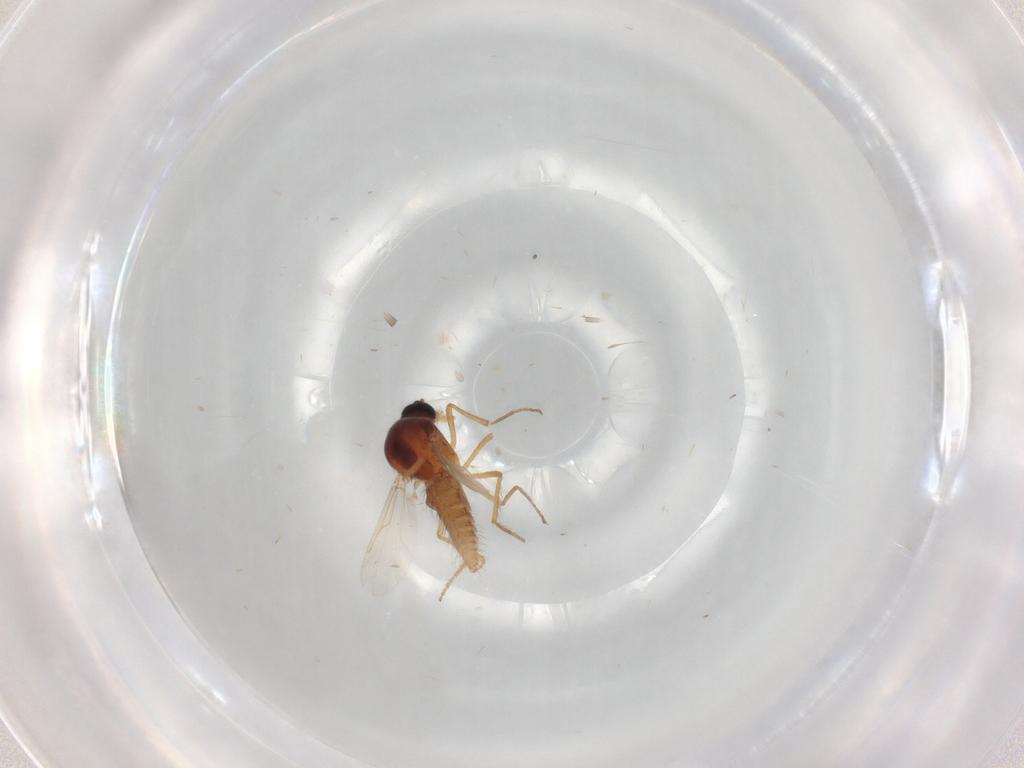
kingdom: Animalia
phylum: Arthropoda
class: Insecta
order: Diptera
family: Ceratopogonidae
